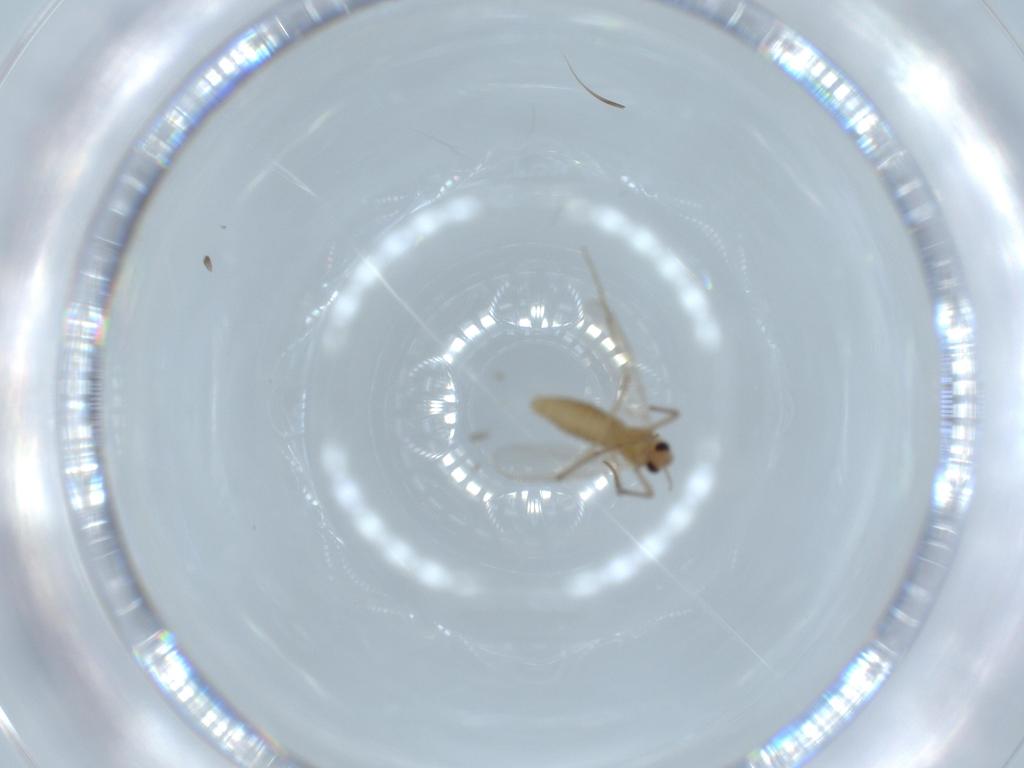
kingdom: Animalia
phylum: Arthropoda
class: Insecta
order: Diptera
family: Chironomidae
